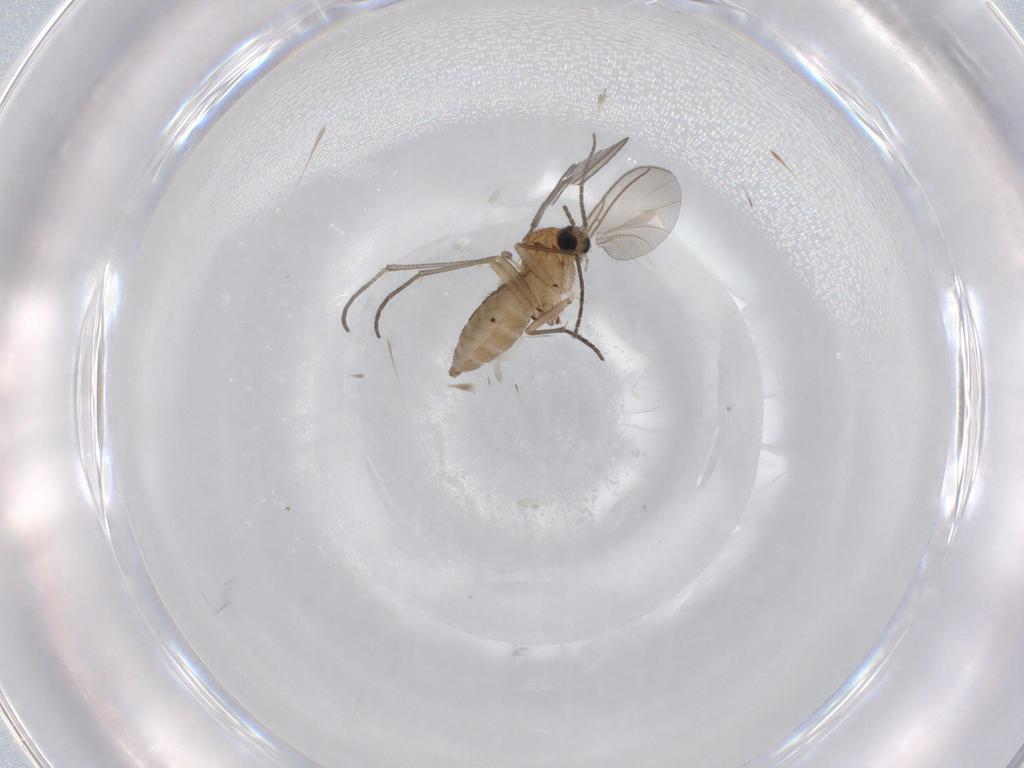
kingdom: Animalia
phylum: Arthropoda
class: Insecta
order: Diptera
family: Sciaridae
